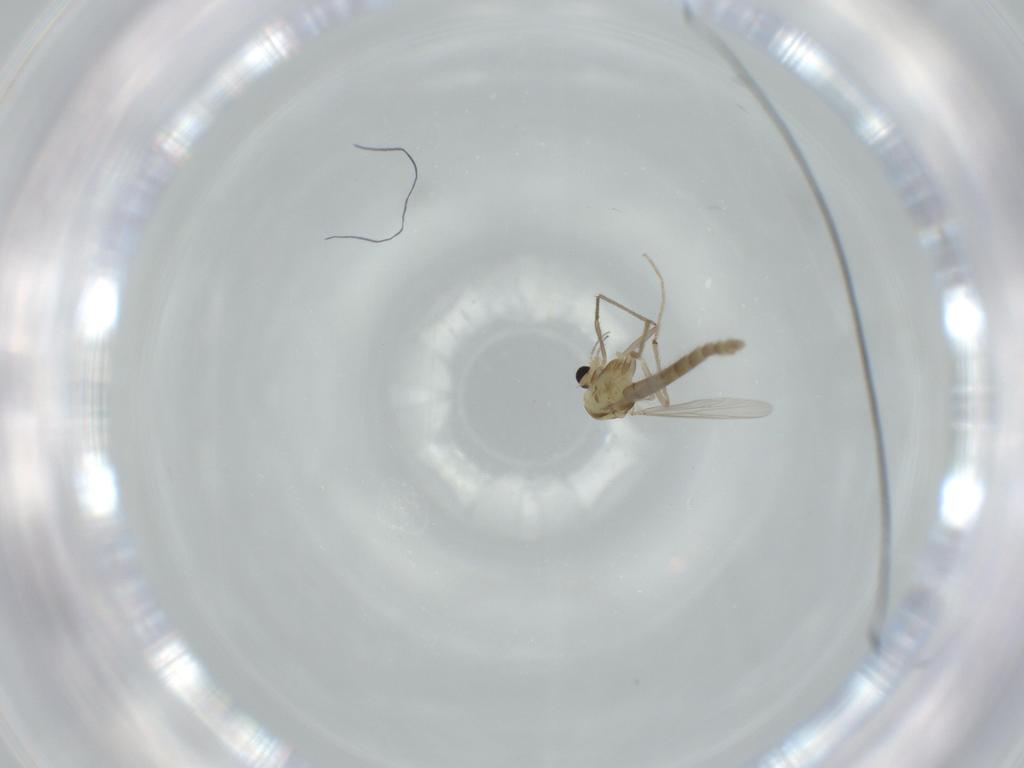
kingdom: Animalia
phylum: Arthropoda
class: Insecta
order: Diptera
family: Chironomidae
